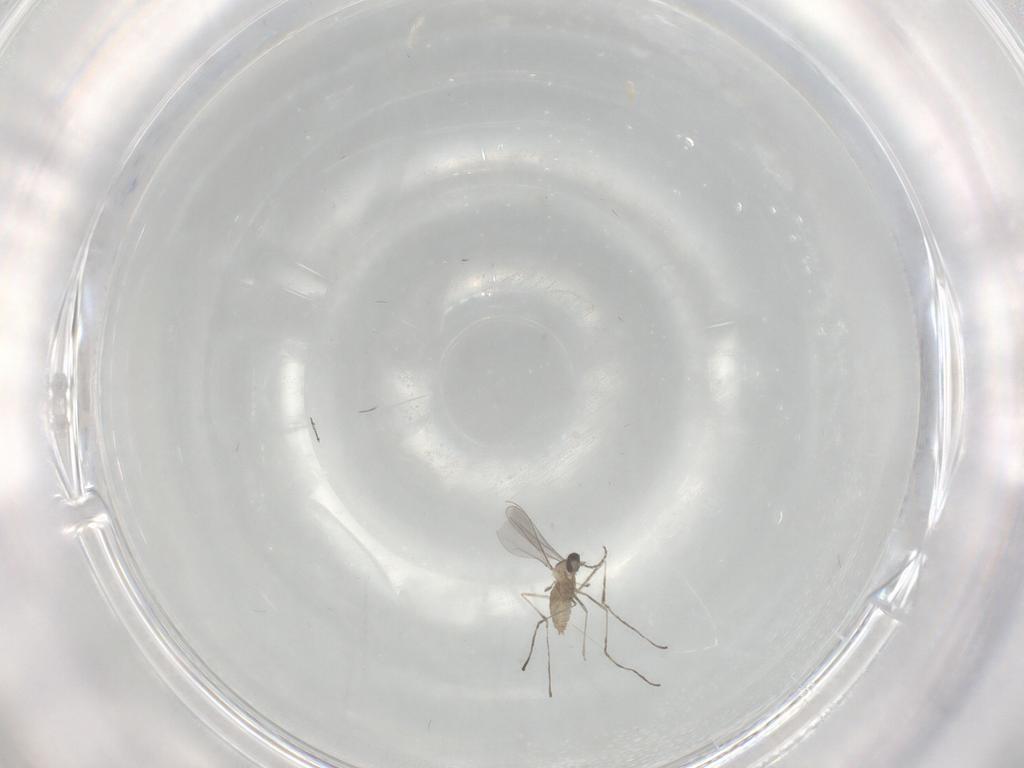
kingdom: Animalia
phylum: Arthropoda
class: Insecta
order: Diptera
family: Cecidomyiidae
